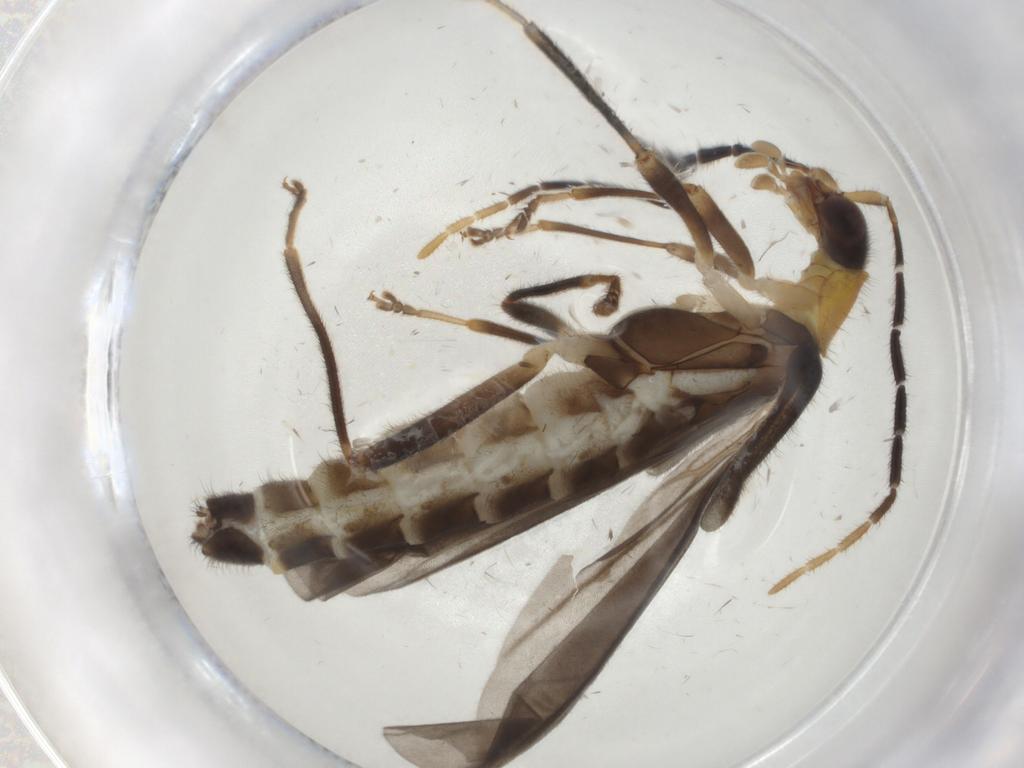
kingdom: Animalia
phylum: Arthropoda
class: Insecta
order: Coleoptera
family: Cantharidae
